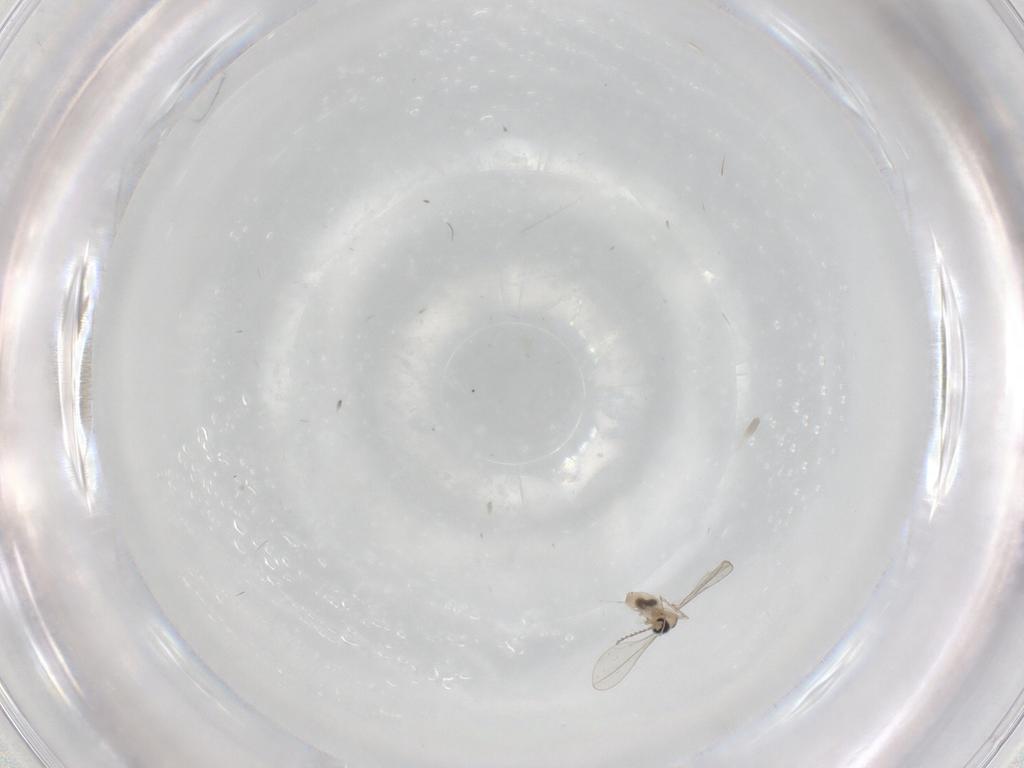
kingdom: Animalia
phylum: Arthropoda
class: Insecta
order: Diptera
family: Cecidomyiidae
